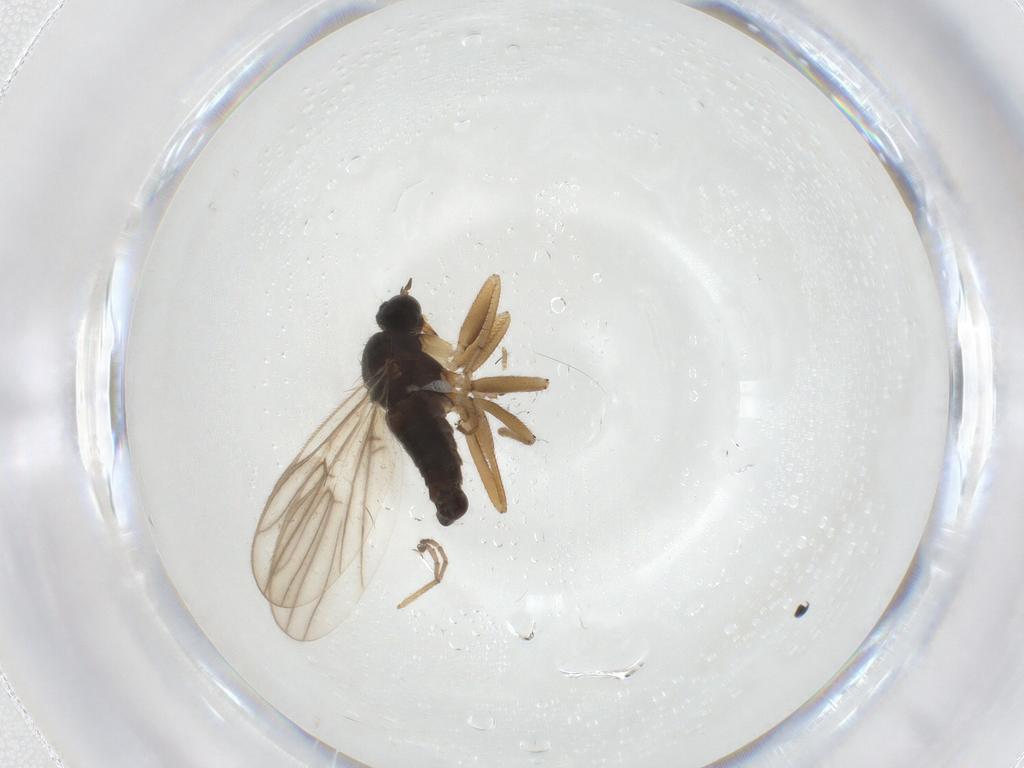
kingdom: Animalia
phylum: Arthropoda
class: Insecta
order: Diptera
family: Hybotidae
